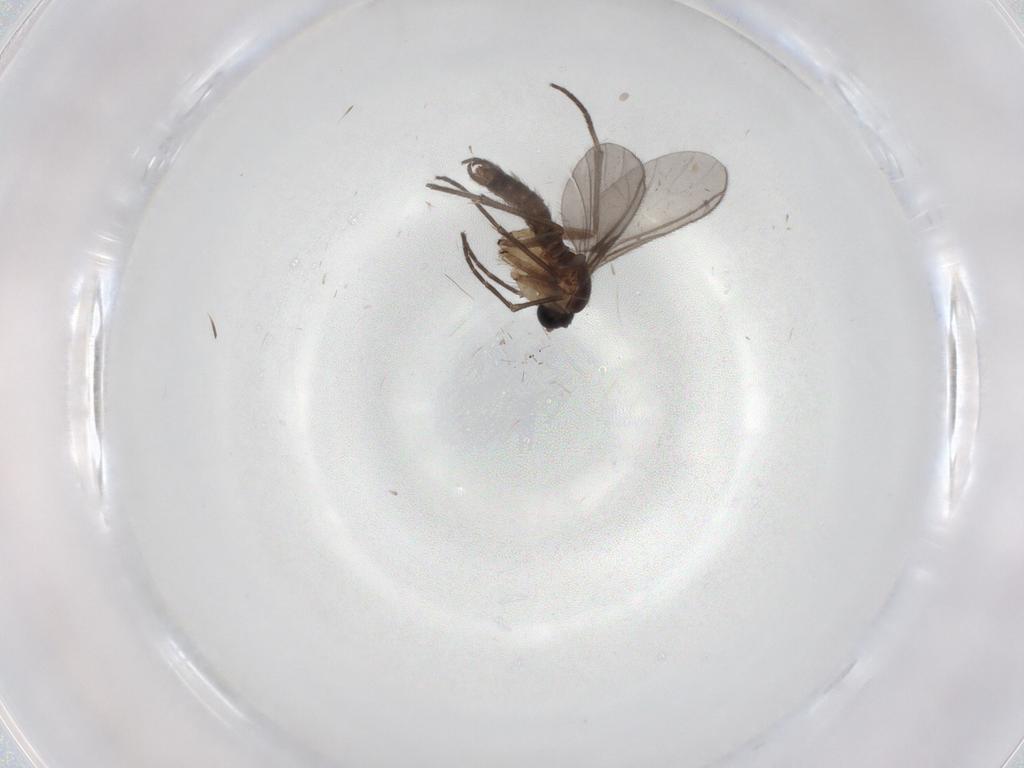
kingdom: Animalia
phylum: Arthropoda
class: Insecta
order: Diptera
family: Sciaridae
